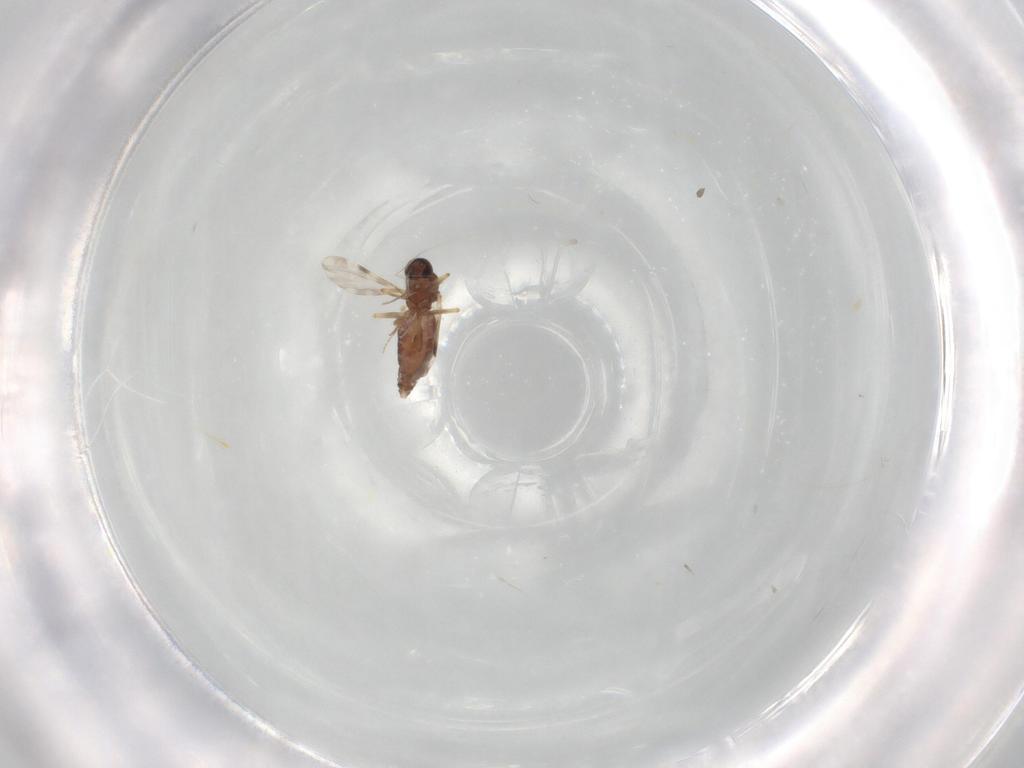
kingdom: Animalia
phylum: Arthropoda
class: Insecta
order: Diptera
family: Ceratopogonidae
